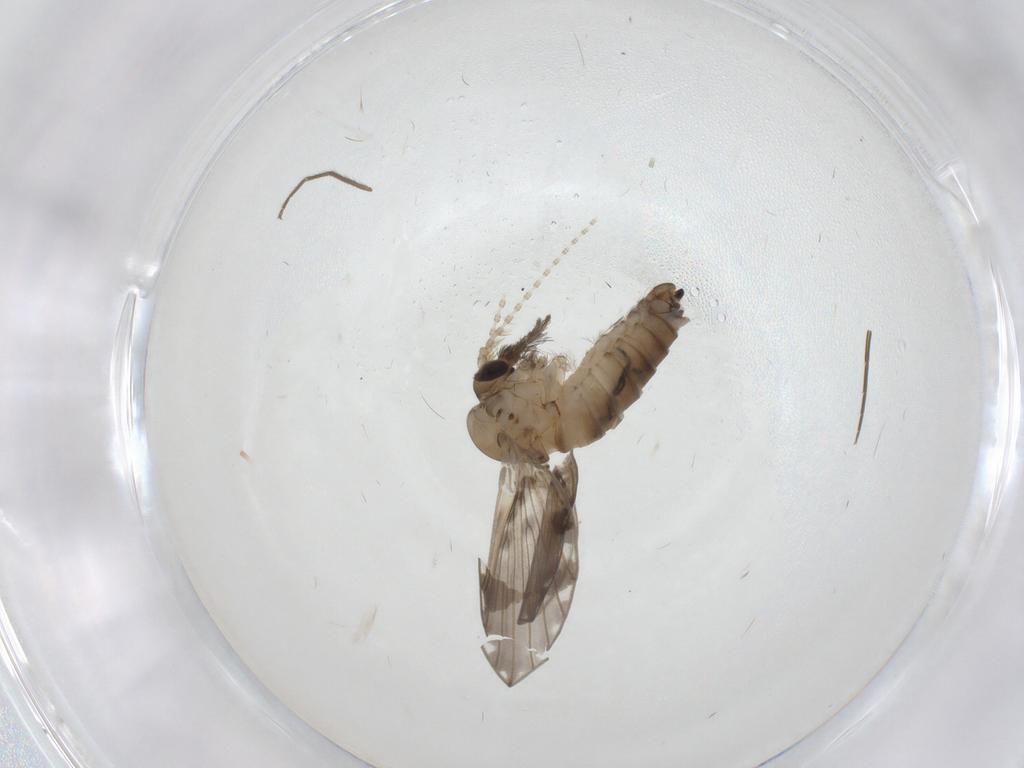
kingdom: Animalia
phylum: Arthropoda
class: Insecta
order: Diptera
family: Psychodidae
